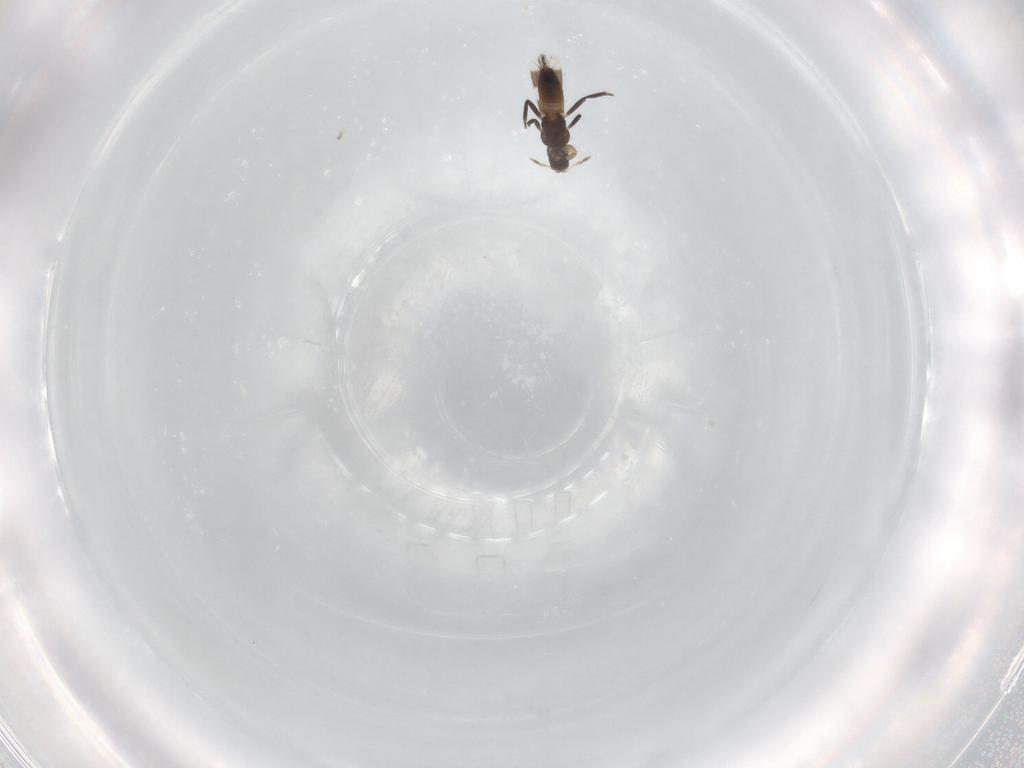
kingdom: Animalia
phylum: Arthropoda
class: Insecta
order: Thysanoptera
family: Aeolothripidae
